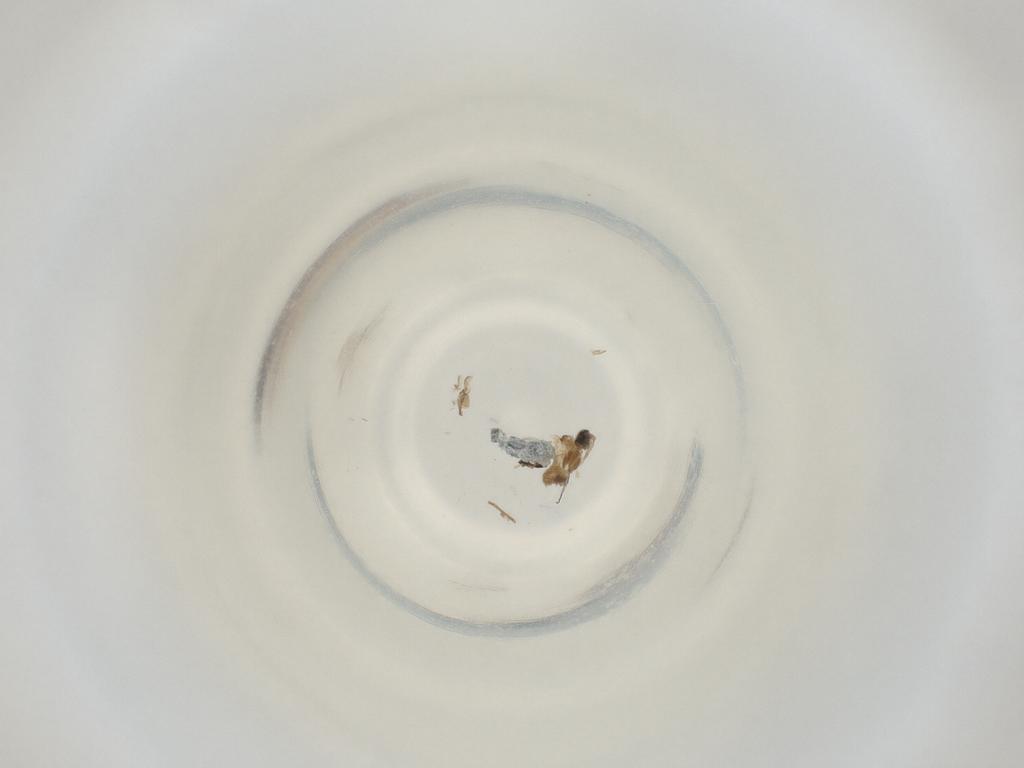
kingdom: Animalia
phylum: Arthropoda
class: Insecta
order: Diptera
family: Cecidomyiidae
